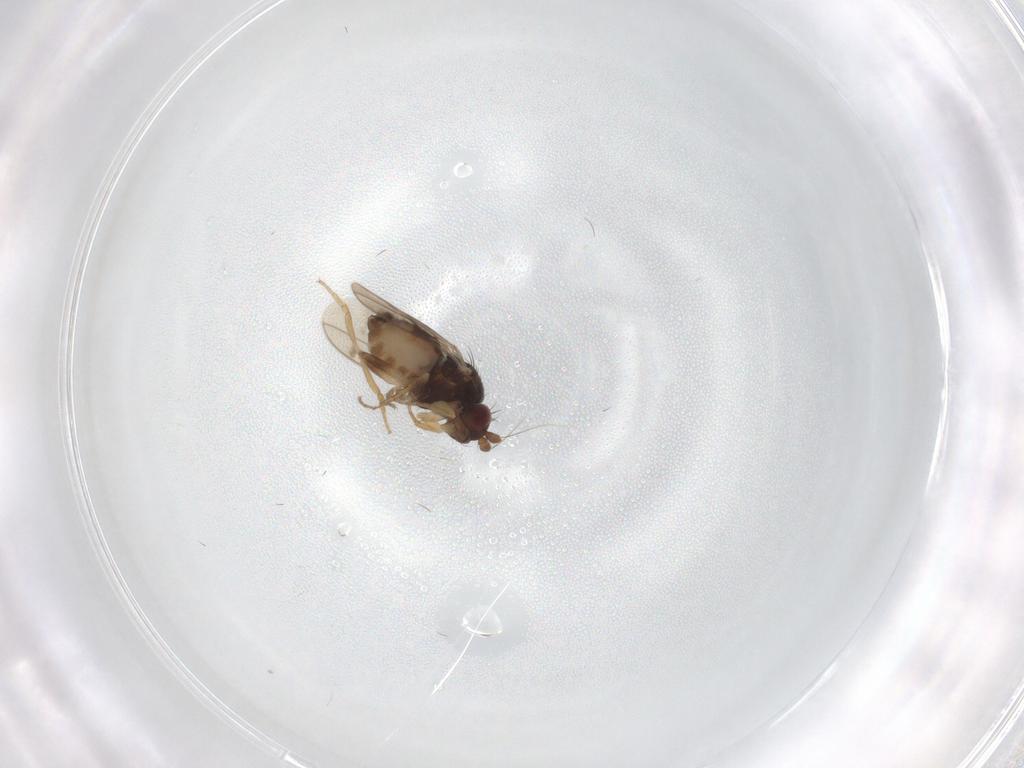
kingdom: Animalia
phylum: Arthropoda
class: Insecta
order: Diptera
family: Sphaeroceridae
